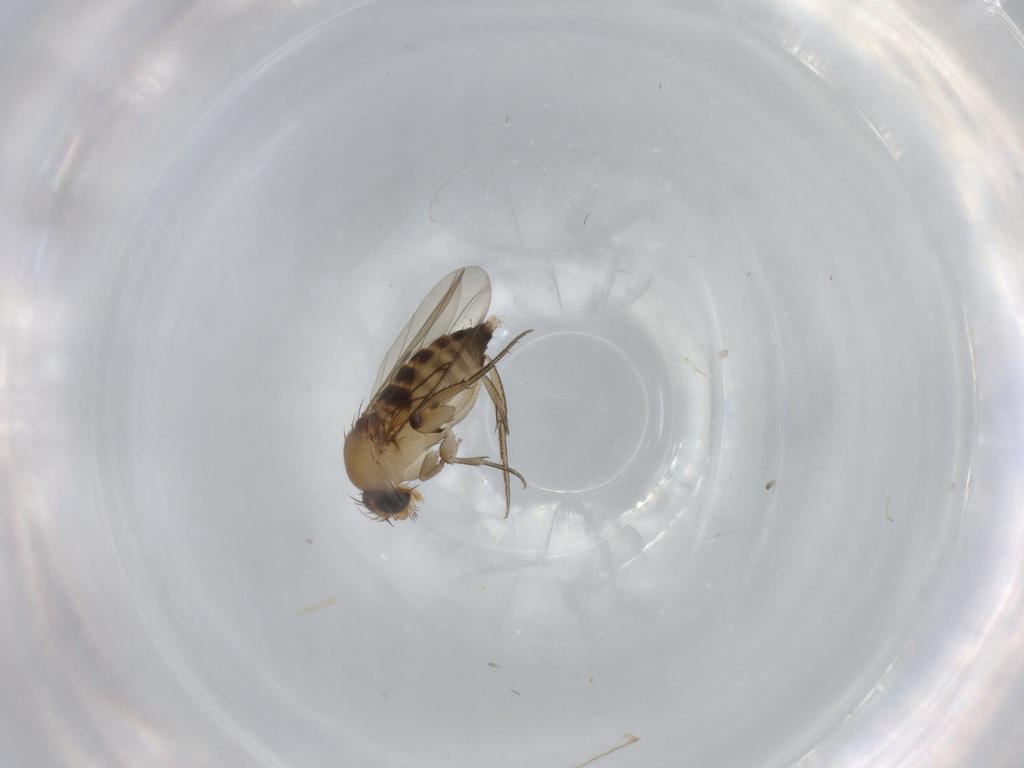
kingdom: Animalia
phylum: Arthropoda
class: Insecta
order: Diptera
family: Phoridae
